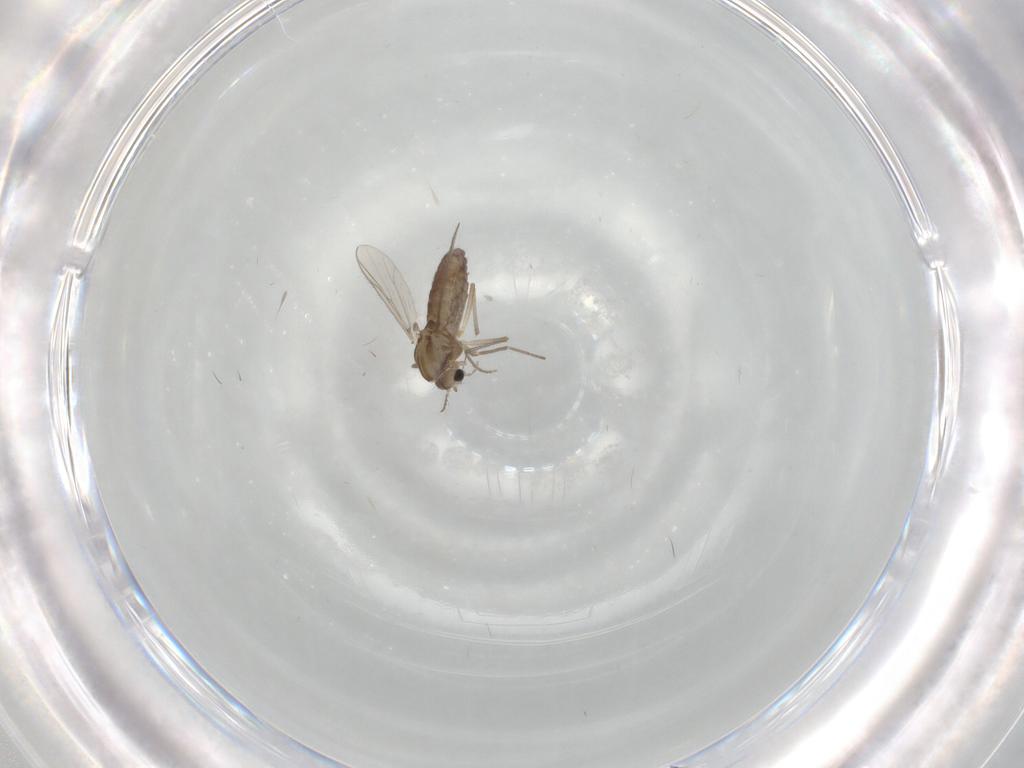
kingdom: Animalia
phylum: Arthropoda
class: Insecta
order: Diptera
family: Chironomidae
